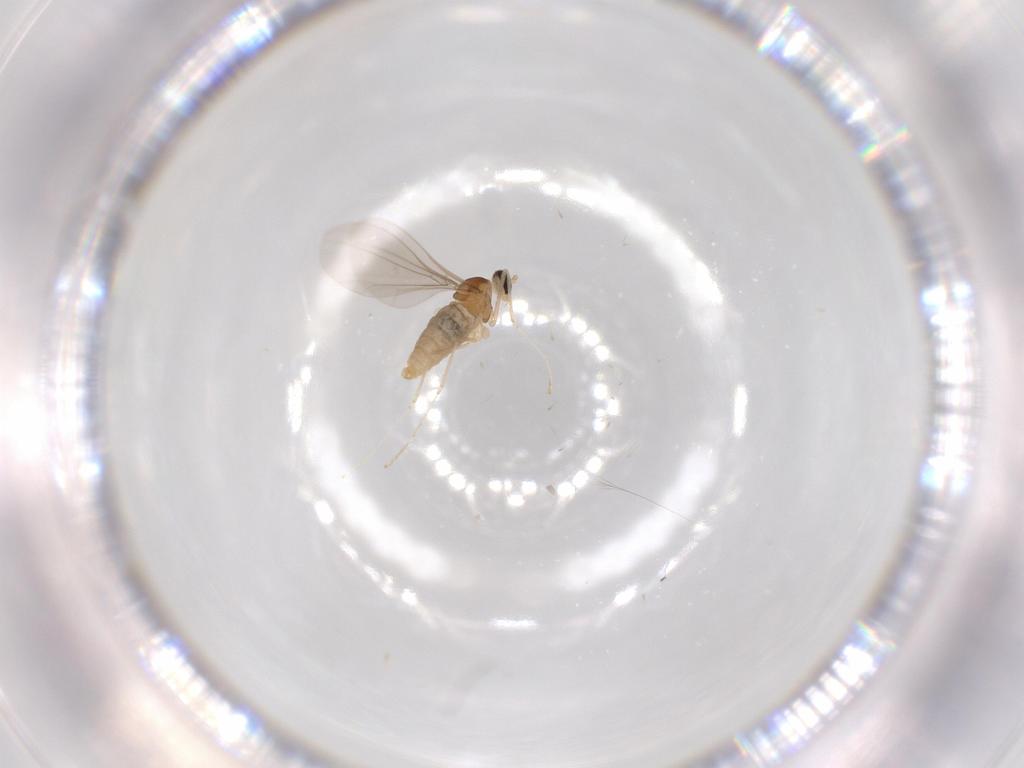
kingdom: Animalia
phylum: Arthropoda
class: Insecta
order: Diptera
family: Cecidomyiidae
